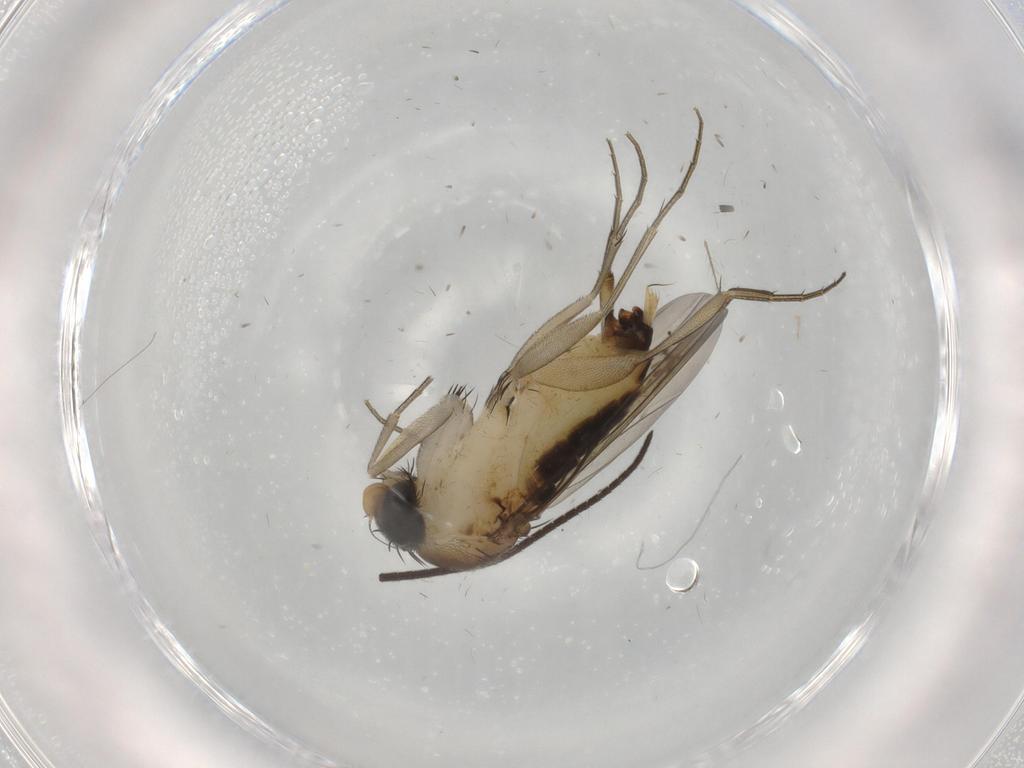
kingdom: Animalia
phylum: Arthropoda
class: Insecta
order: Diptera
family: Phoridae
